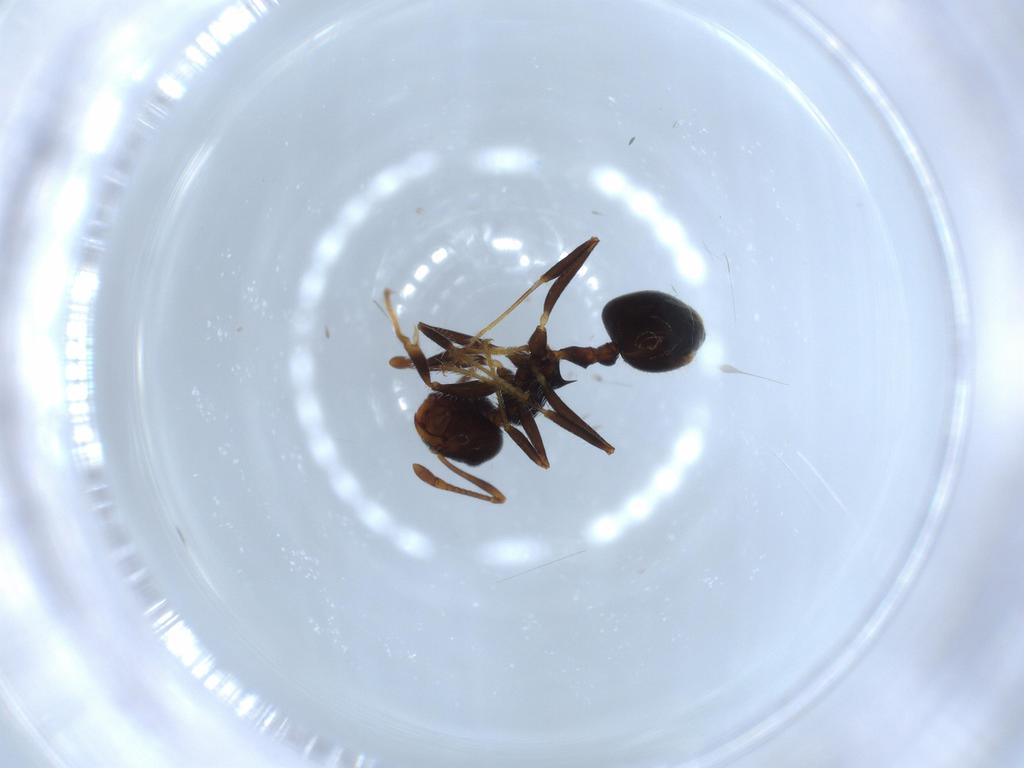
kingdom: Animalia
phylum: Arthropoda
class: Insecta
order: Hymenoptera
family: Formicidae
